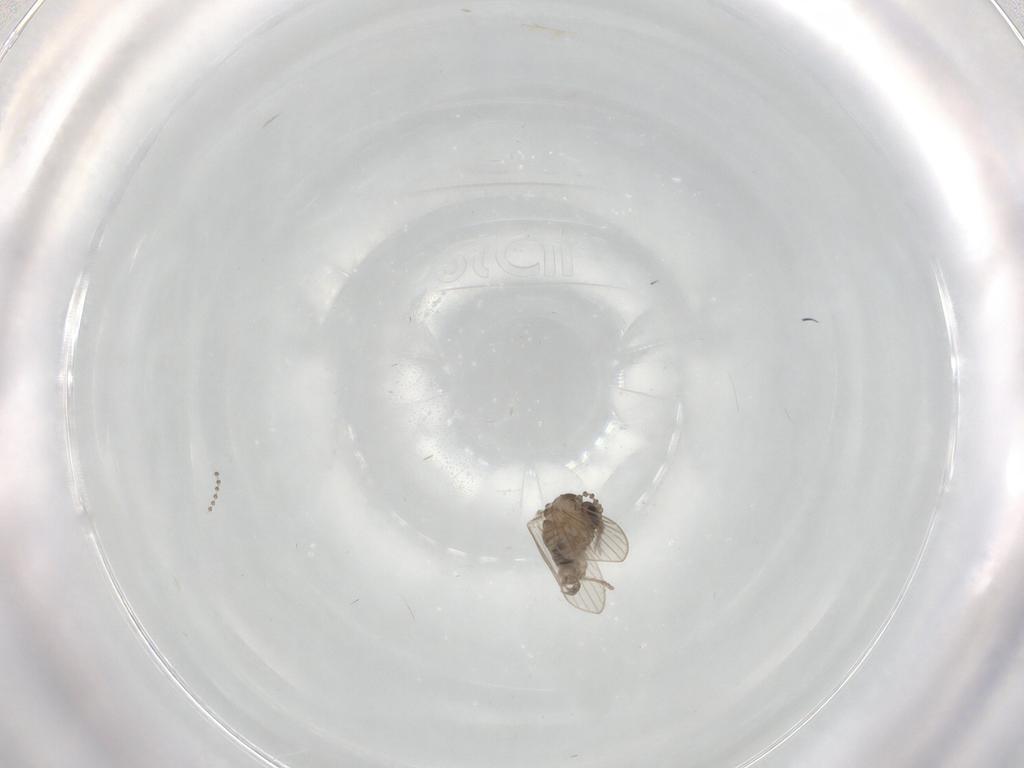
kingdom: Animalia
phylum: Arthropoda
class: Insecta
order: Diptera
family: Psychodidae
